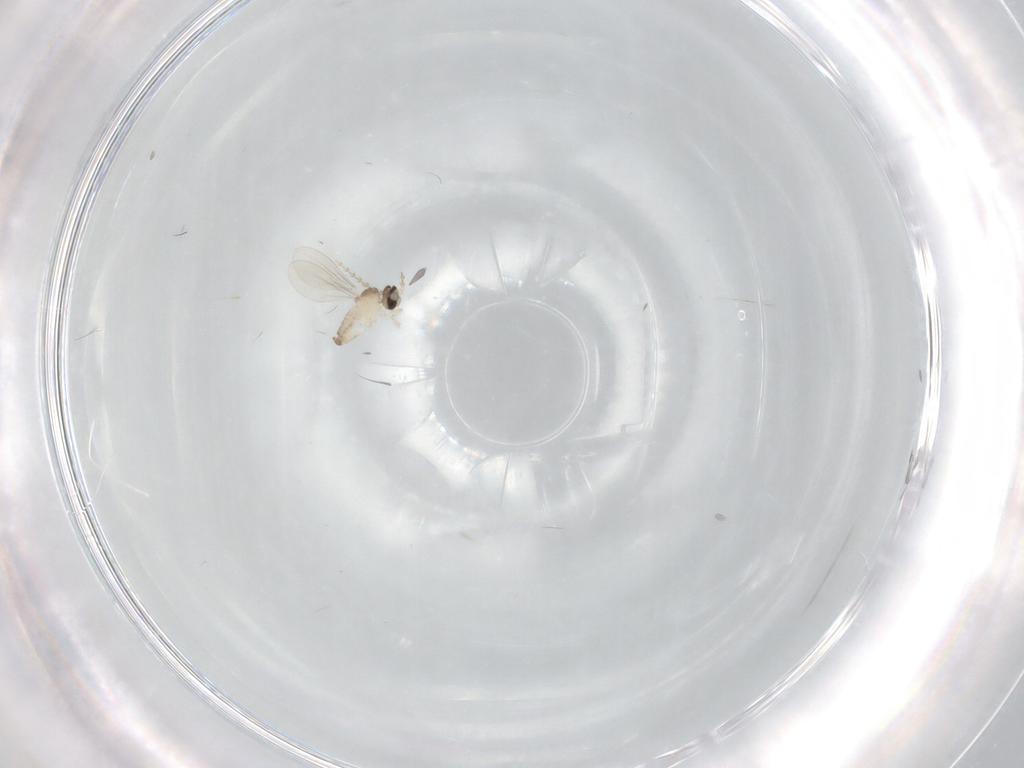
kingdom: Animalia
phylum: Arthropoda
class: Insecta
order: Diptera
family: Cecidomyiidae
